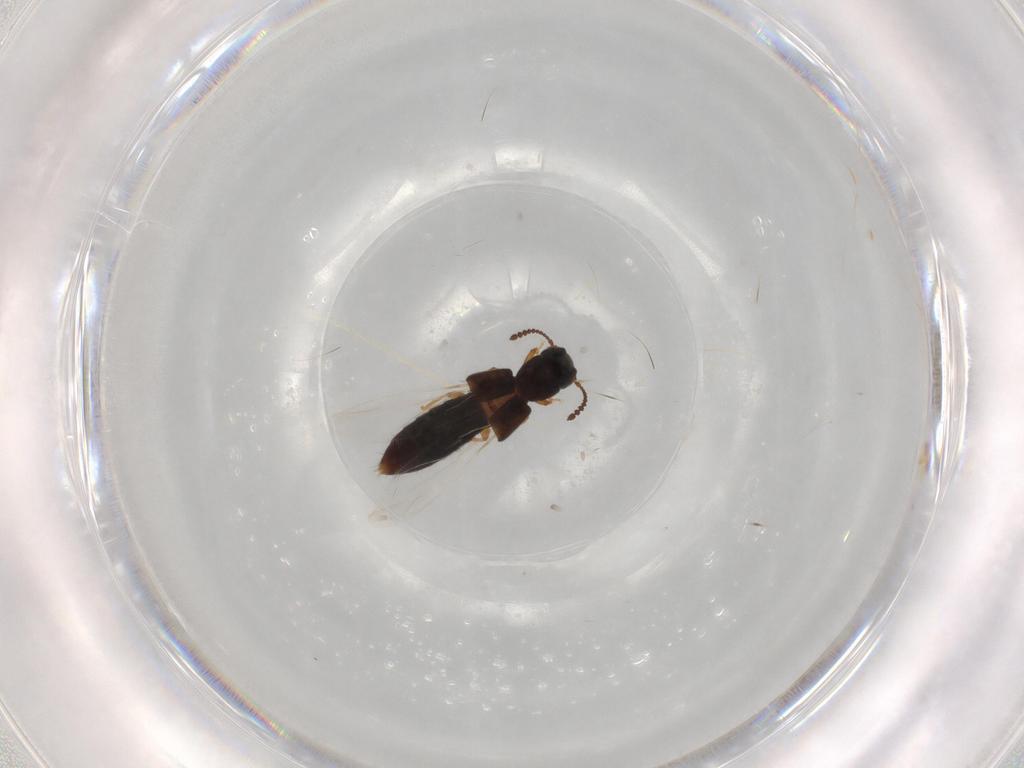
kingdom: Animalia
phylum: Arthropoda
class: Insecta
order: Coleoptera
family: Staphylinidae
